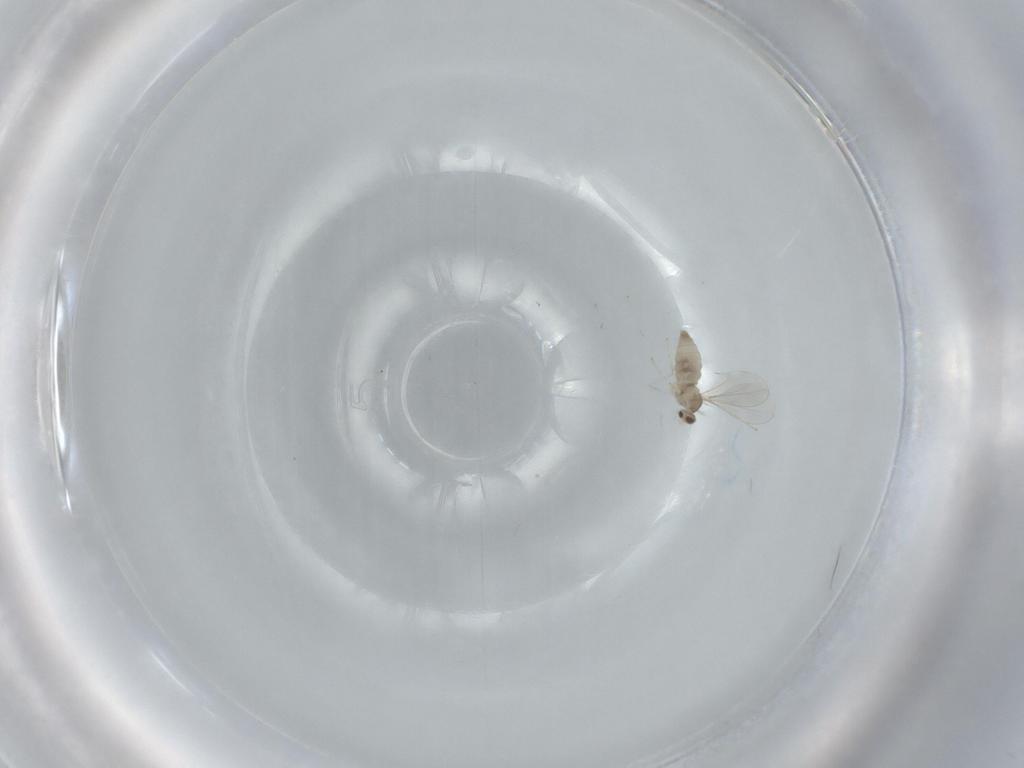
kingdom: Animalia
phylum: Arthropoda
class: Insecta
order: Diptera
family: Cecidomyiidae
